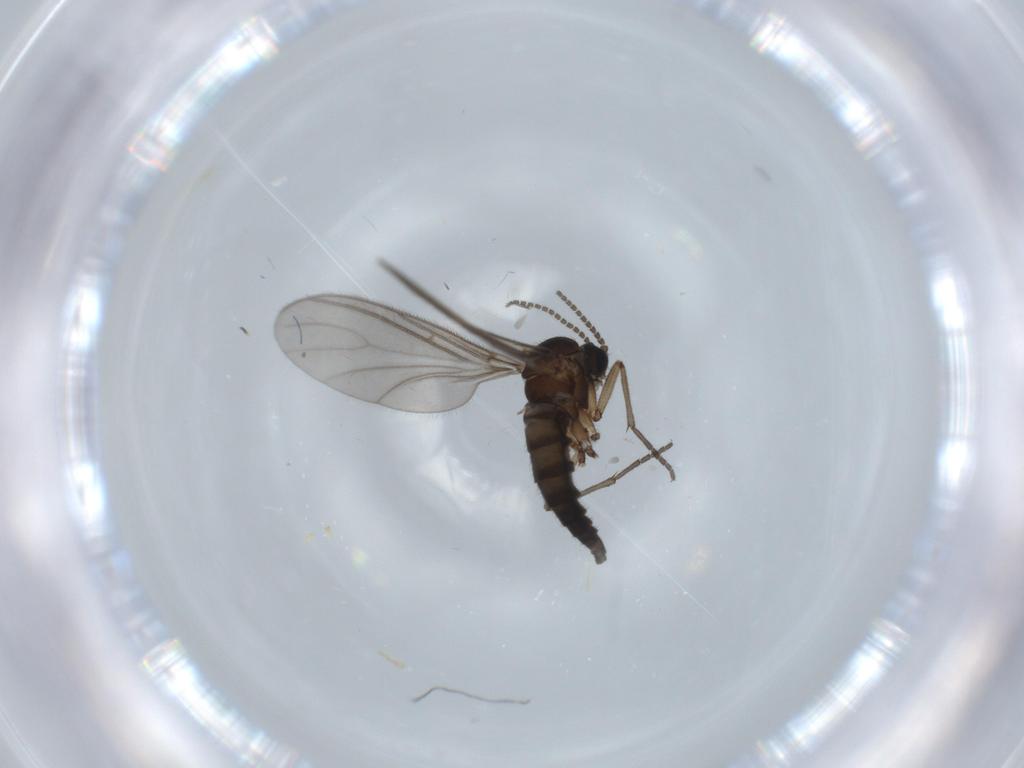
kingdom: Animalia
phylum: Arthropoda
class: Insecta
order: Diptera
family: Sciaridae
